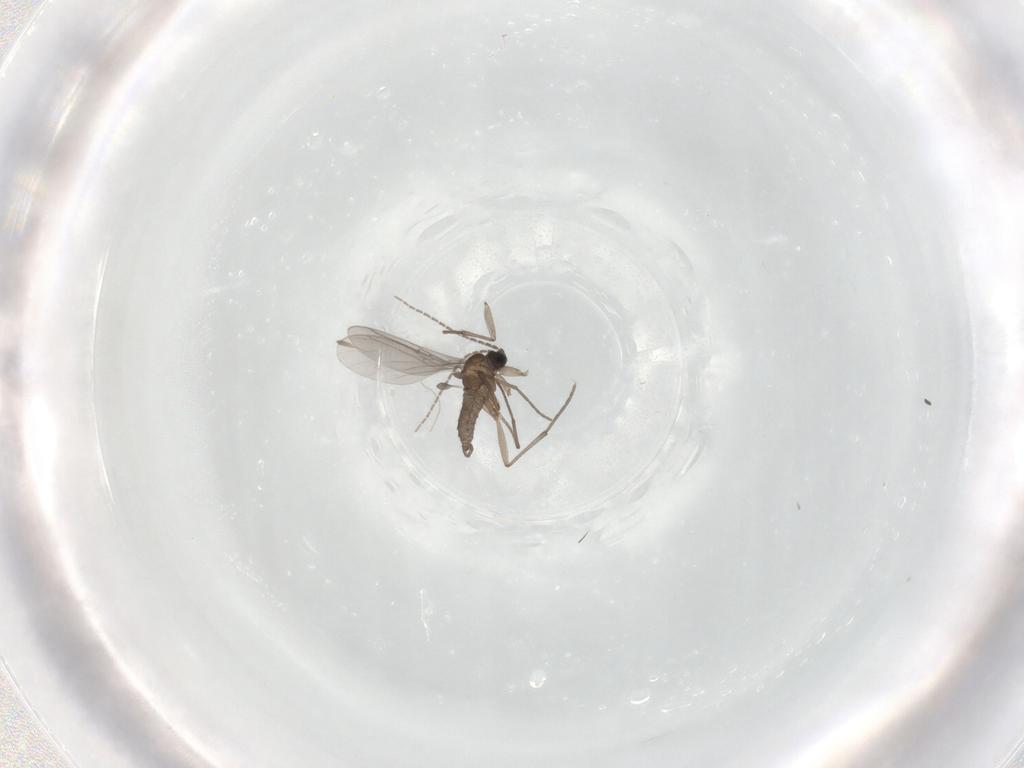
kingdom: Animalia
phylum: Arthropoda
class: Insecta
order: Diptera
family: Sciaridae
